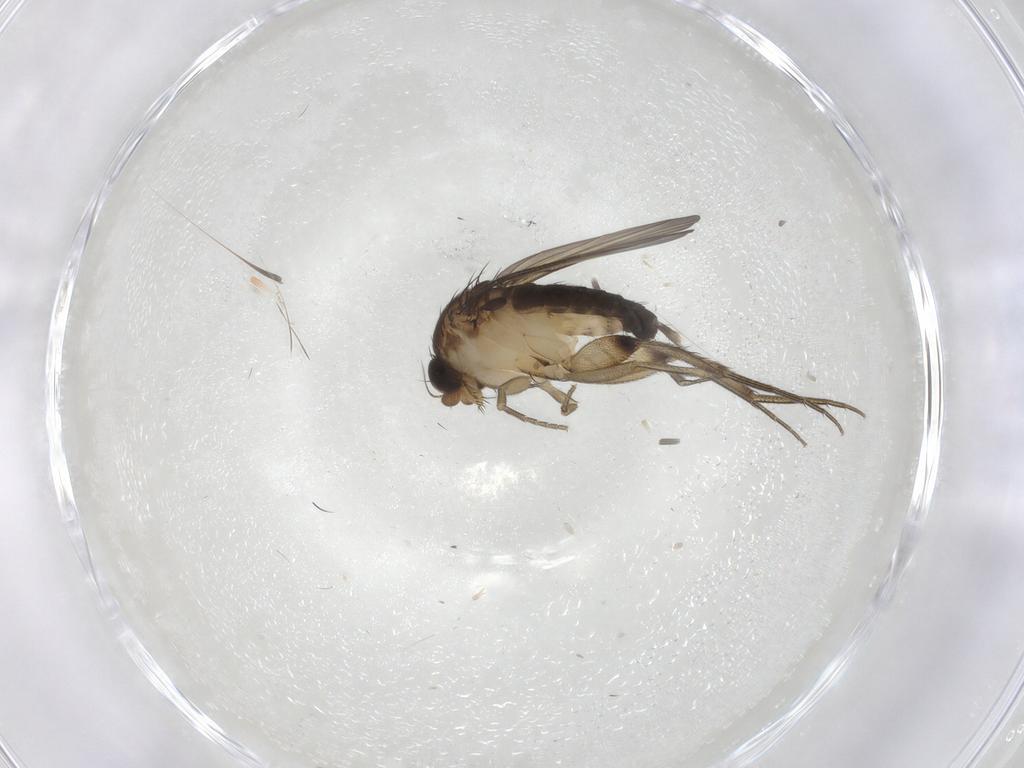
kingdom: Animalia
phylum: Arthropoda
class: Insecta
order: Diptera
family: Phoridae
